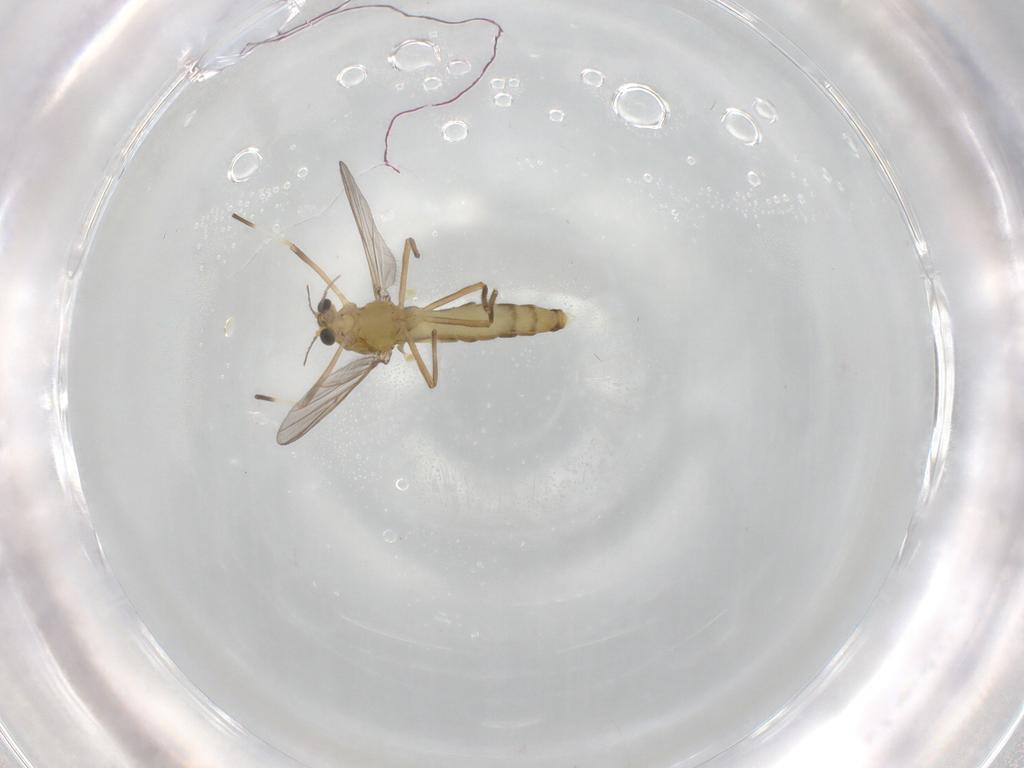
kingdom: Animalia
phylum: Arthropoda
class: Insecta
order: Diptera
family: Chironomidae
